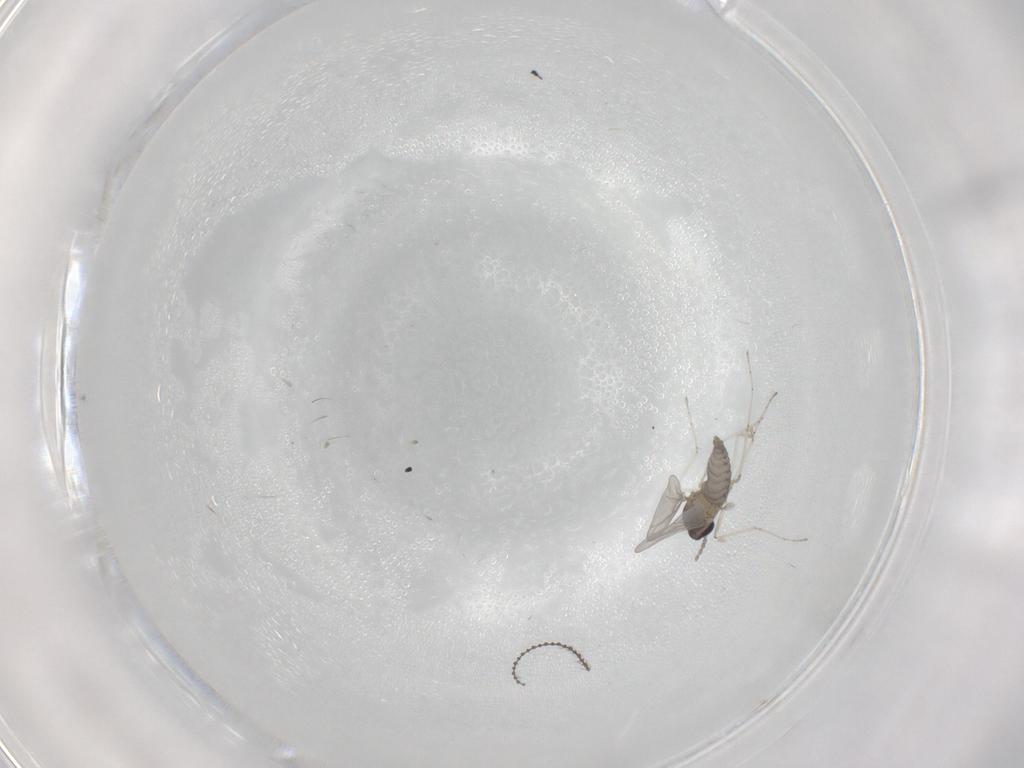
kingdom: Animalia
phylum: Arthropoda
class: Insecta
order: Diptera
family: Cecidomyiidae
